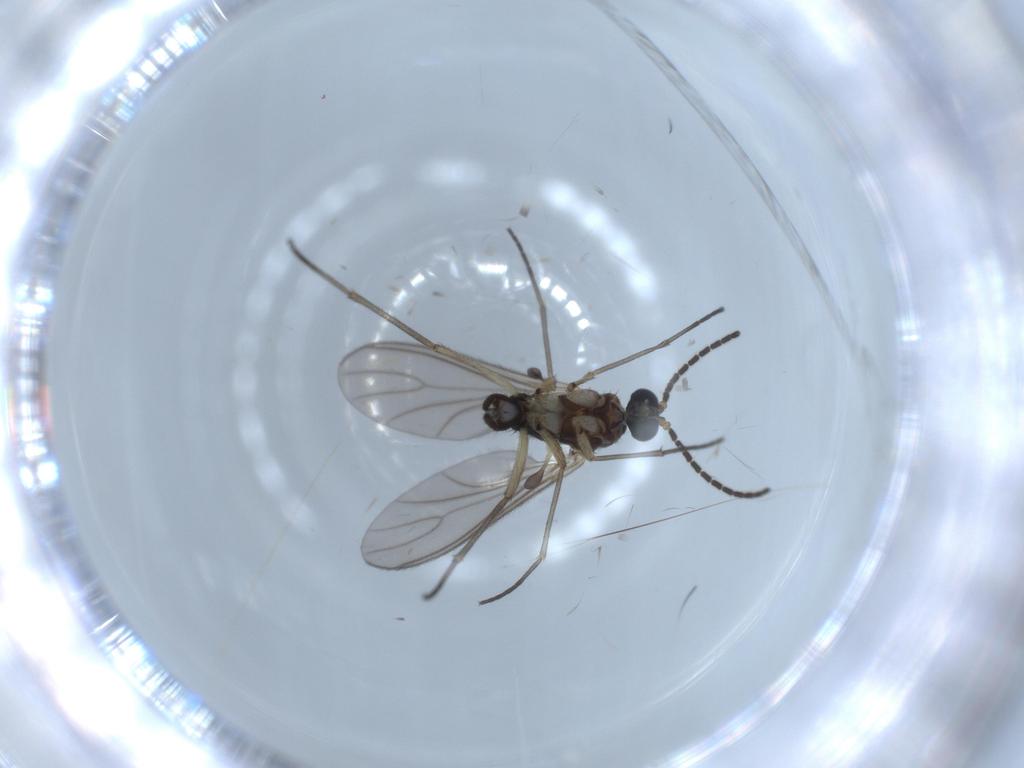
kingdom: Animalia
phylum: Arthropoda
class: Insecta
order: Diptera
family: Sciaridae
